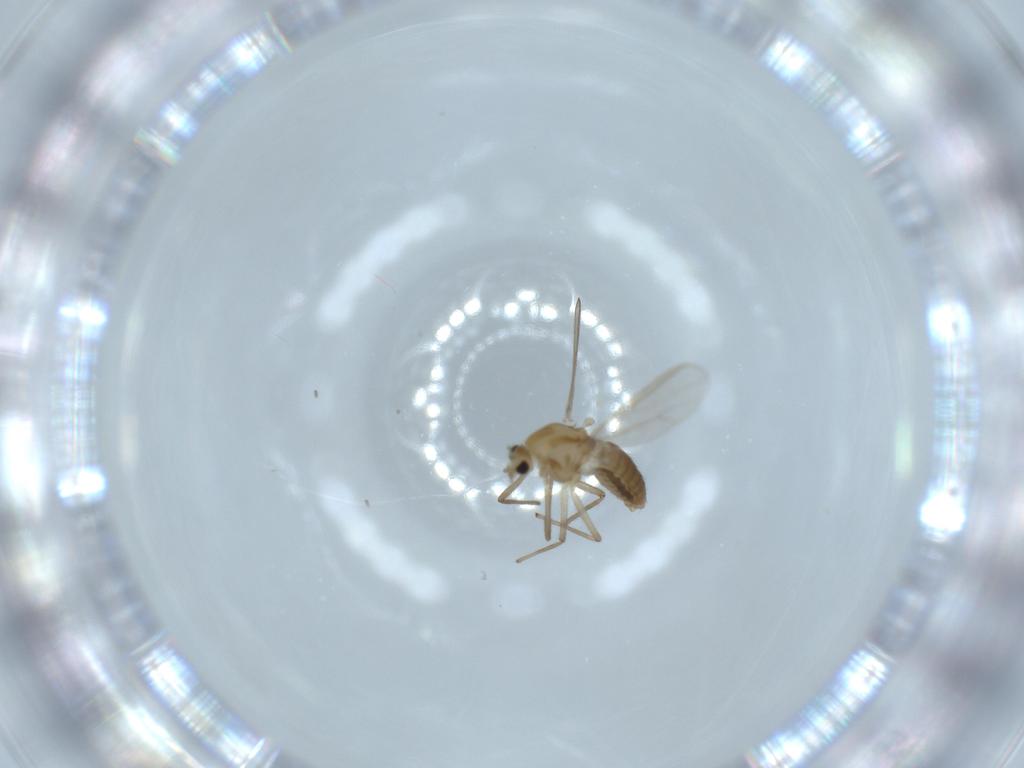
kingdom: Animalia
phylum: Arthropoda
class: Insecta
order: Diptera
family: Chironomidae
